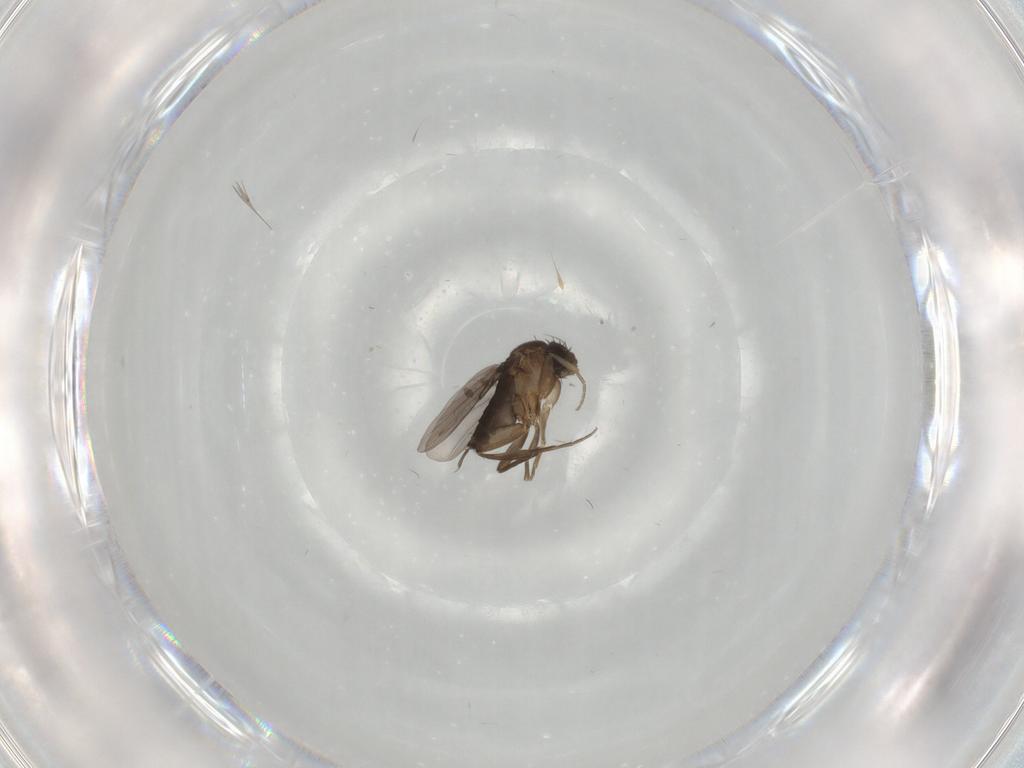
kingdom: Animalia
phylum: Arthropoda
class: Insecta
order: Diptera
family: Phoridae
